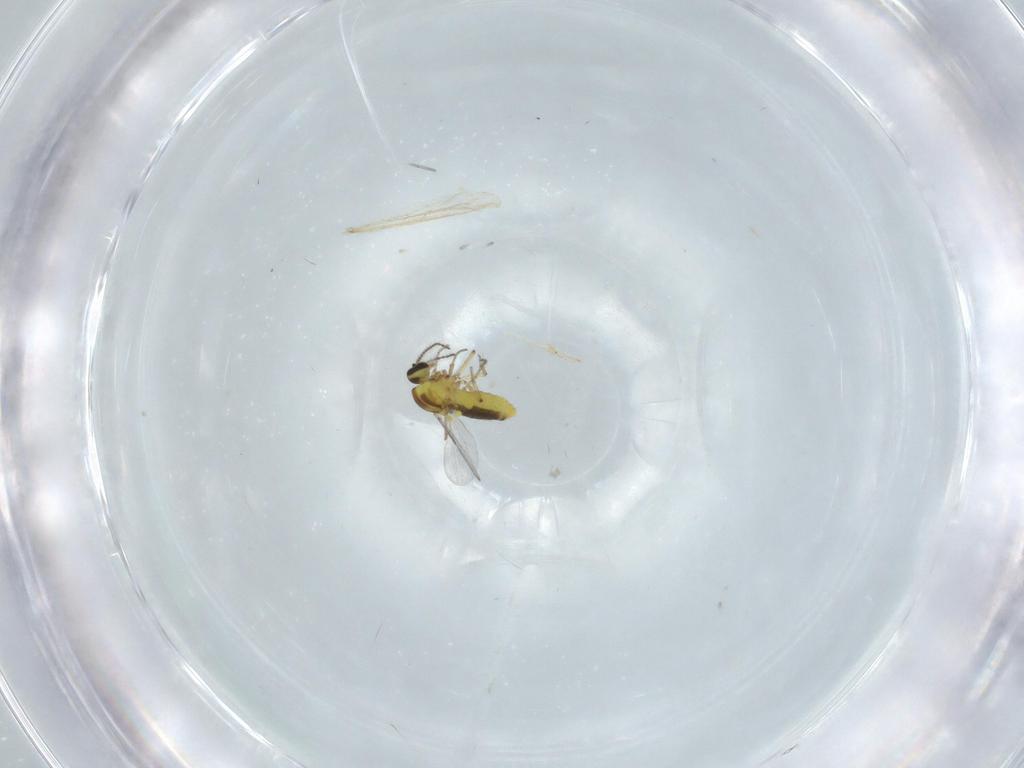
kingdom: Animalia
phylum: Arthropoda
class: Insecta
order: Diptera
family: Ceratopogonidae
